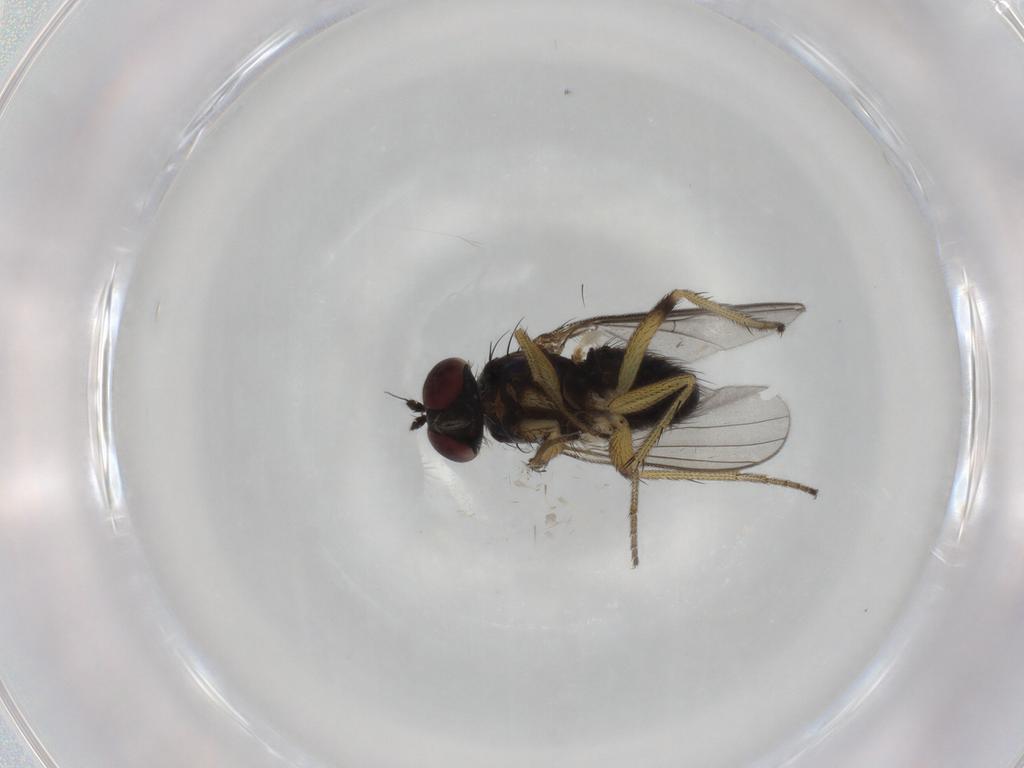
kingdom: Animalia
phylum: Arthropoda
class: Insecta
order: Diptera
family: Dolichopodidae
